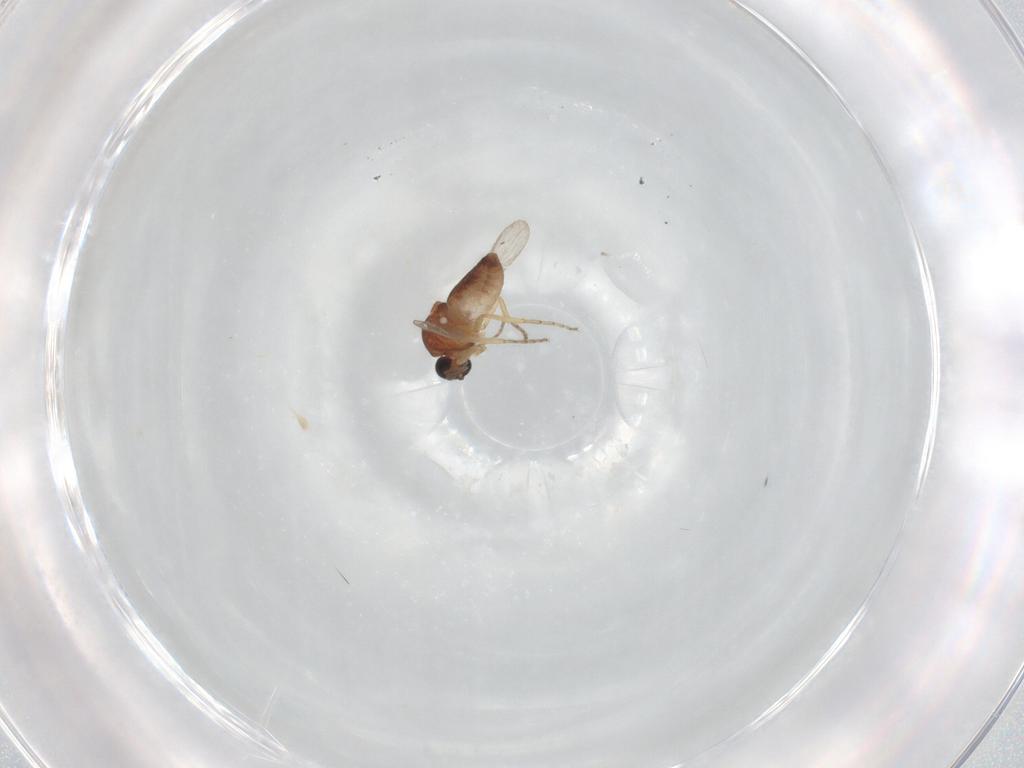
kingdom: Animalia
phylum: Arthropoda
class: Insecta
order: Diptera
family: Ceratopogonidae
